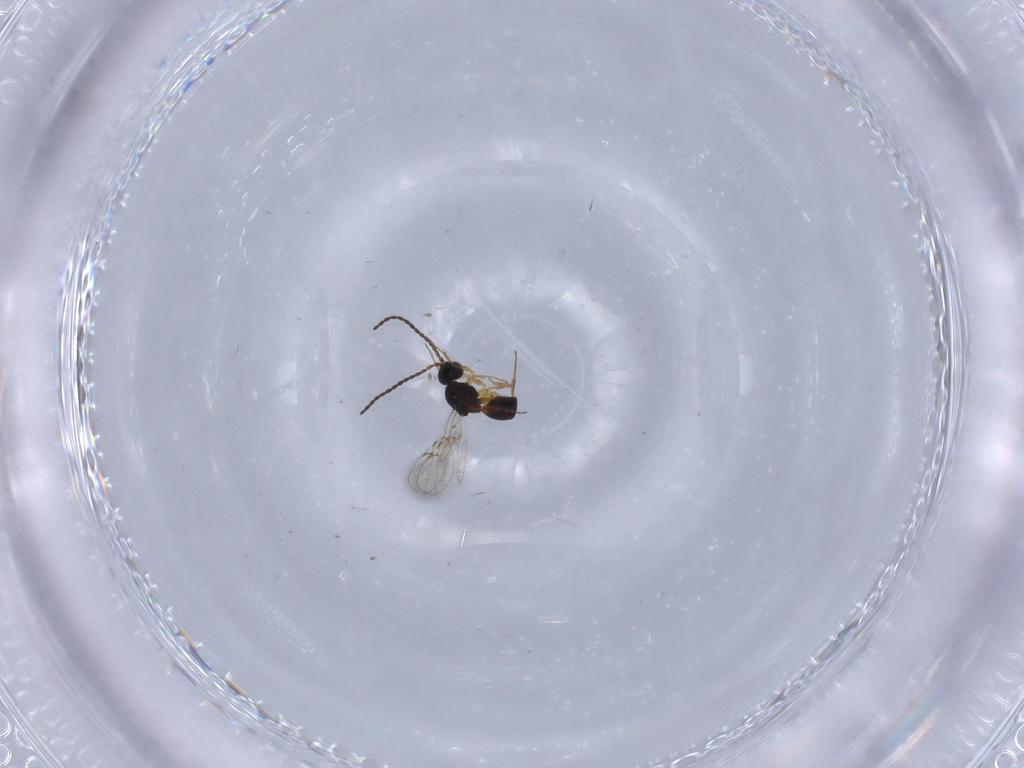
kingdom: Animalia
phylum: Arthropoda
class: Insecta
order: Hymenoptera
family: Figitidae
